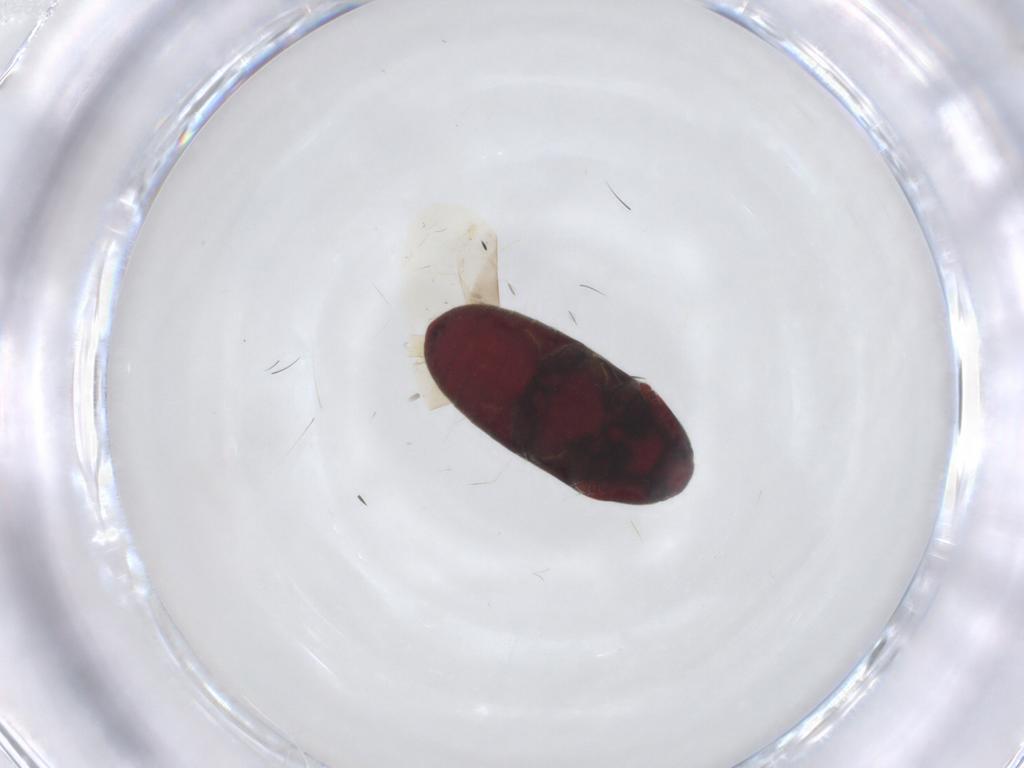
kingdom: Animalia
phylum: Arthropoda
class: Insecta
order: Coleoptera
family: Throscidae
